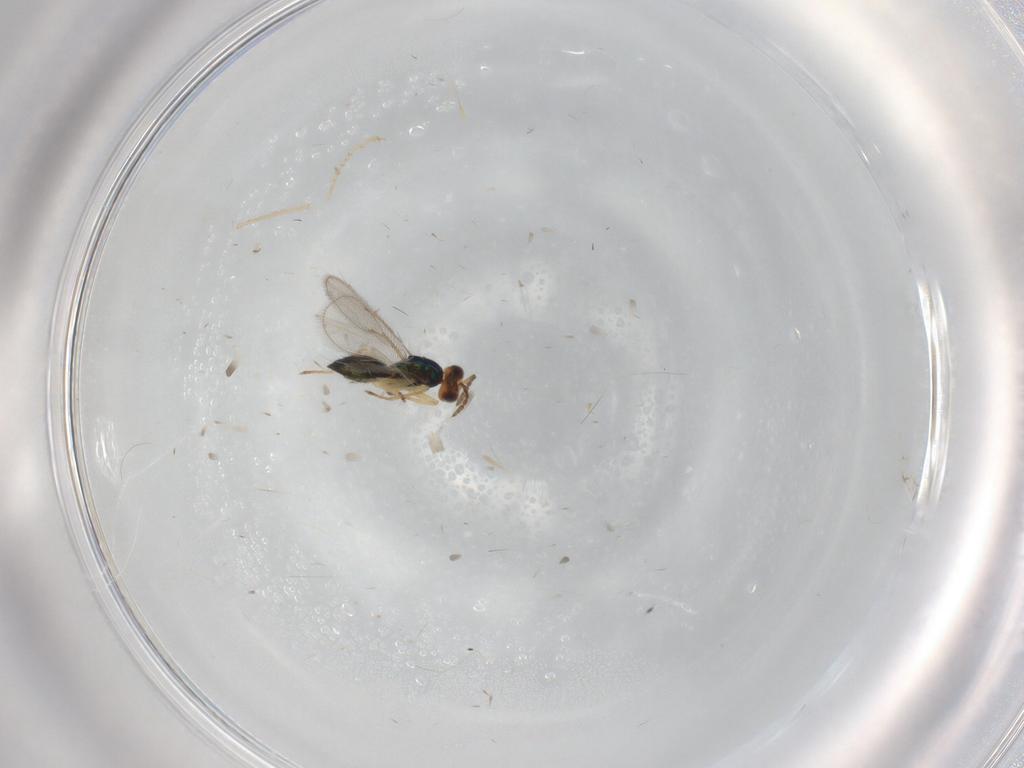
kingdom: Animalia
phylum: Arthropoda
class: Insecta
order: Hymenoptera
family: Eulophidae
